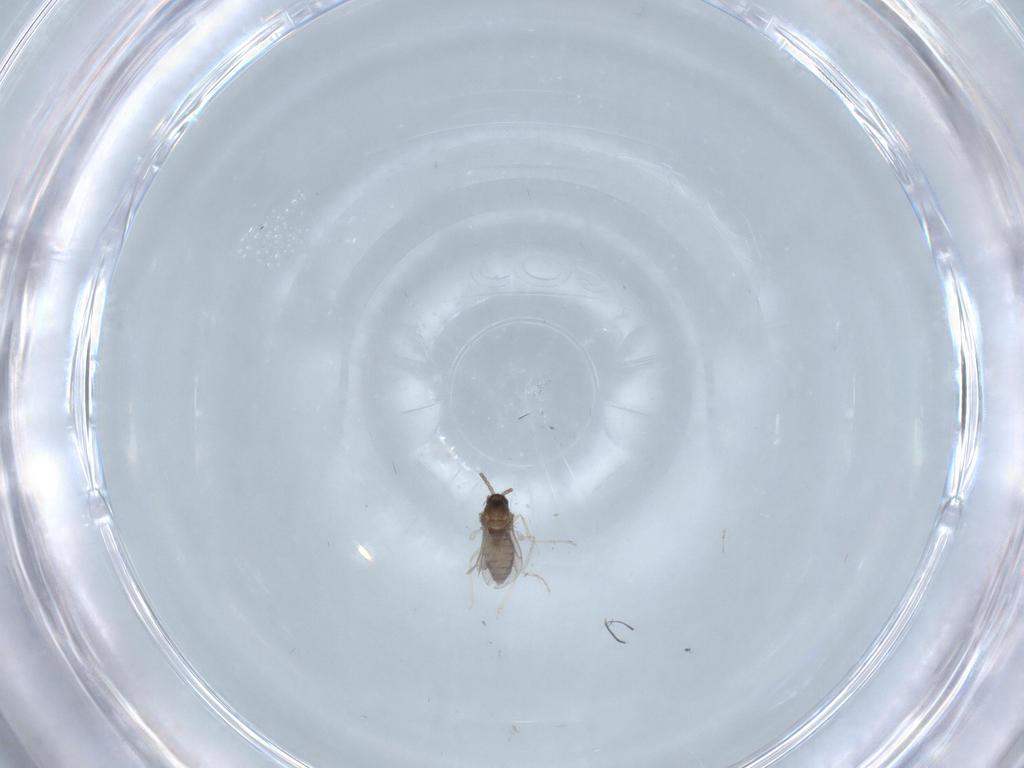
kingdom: Animalia
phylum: Arthropoda
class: Insecta
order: Diptera
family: Cecidomyiidae
